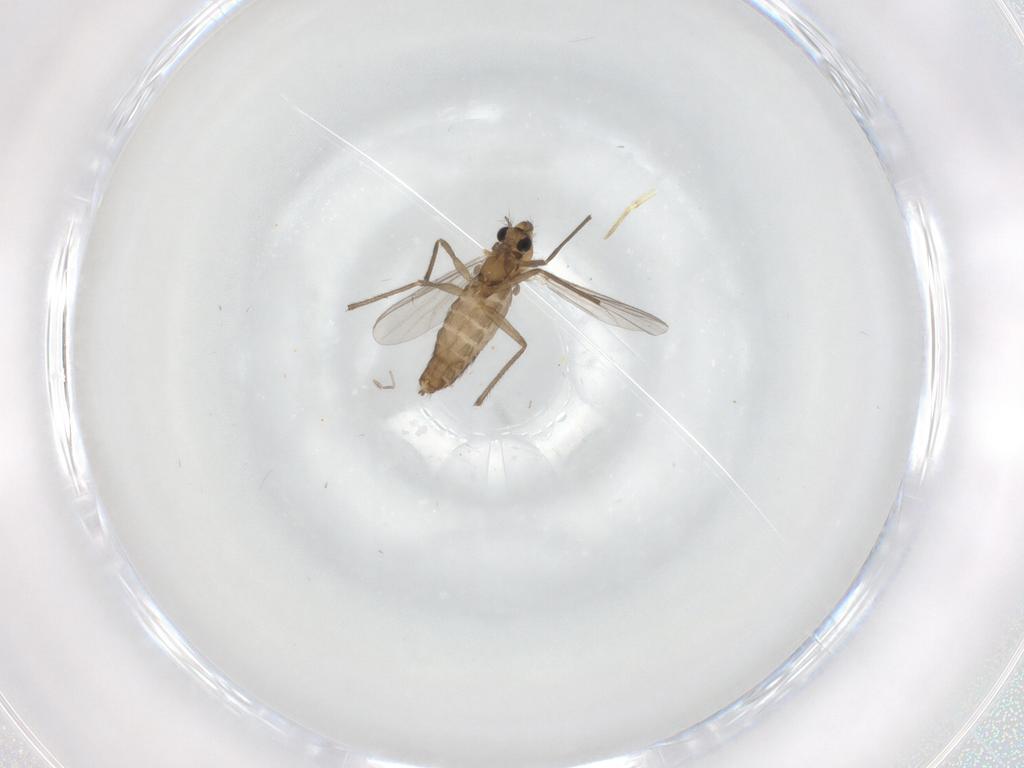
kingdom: Animalia
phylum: Arthropoda
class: Insecta
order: Diptera
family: Chironomidae
